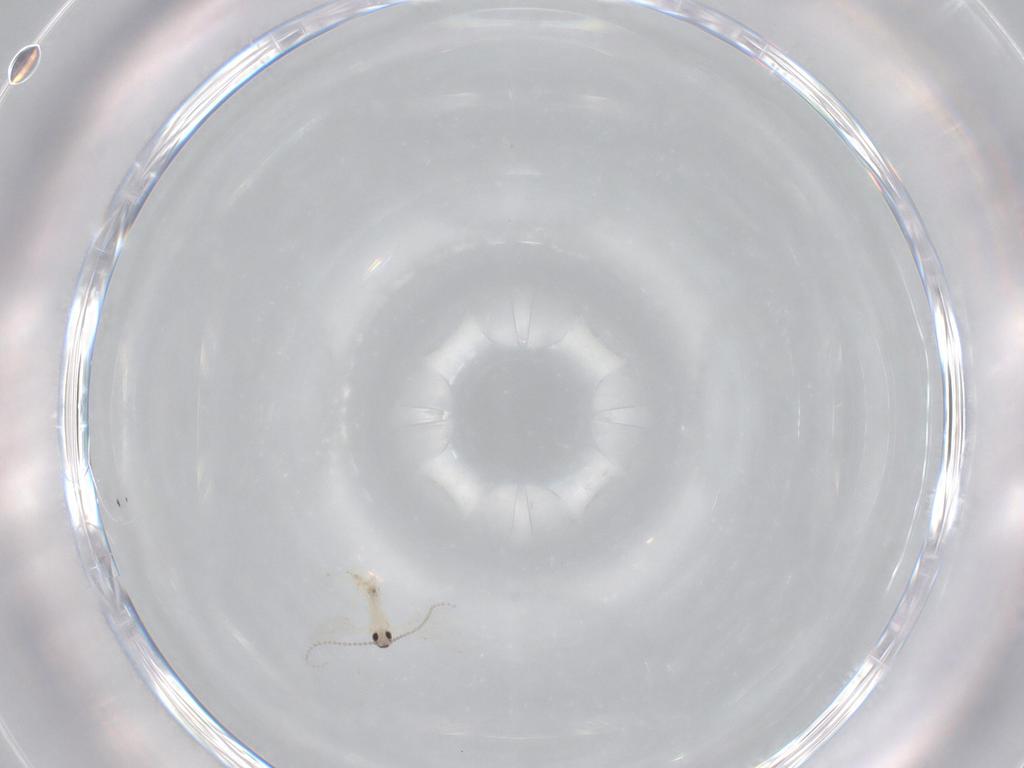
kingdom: Animalia
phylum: Arthropoda
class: Insecta
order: Diptera
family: Cecidomyiidae
